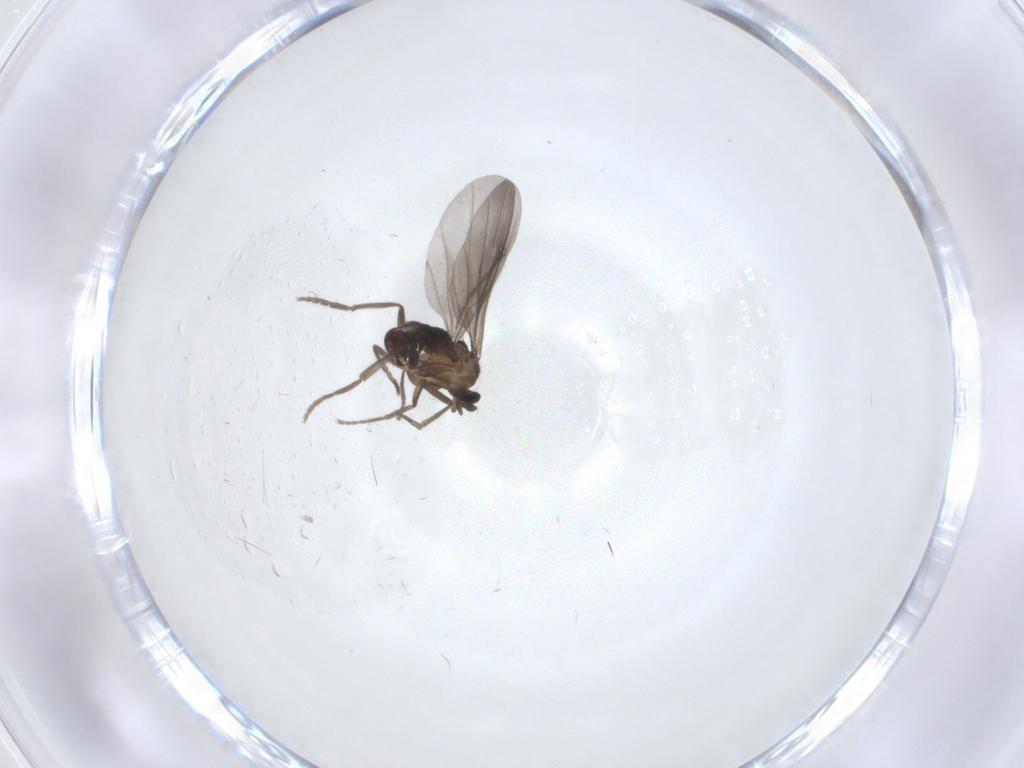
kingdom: Animalia
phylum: Arthropoda
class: Insecta
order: Diptera
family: Phoridae
